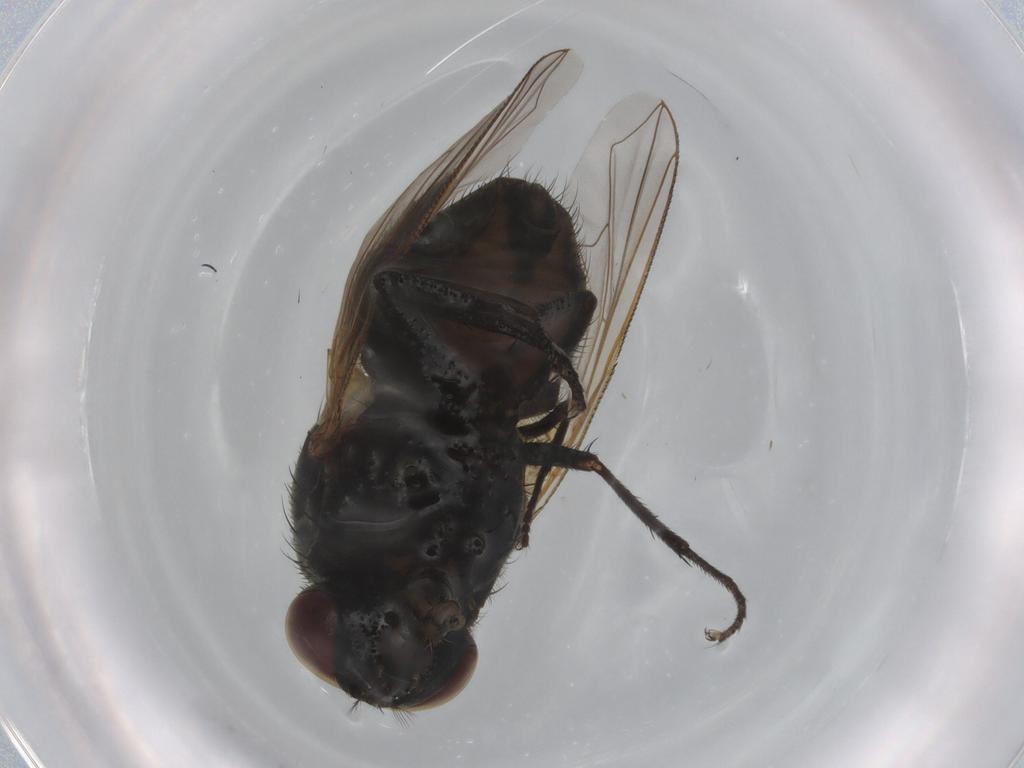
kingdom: Animalia
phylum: Arthropoda
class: Insecta
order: Diptera
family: Muscidae
